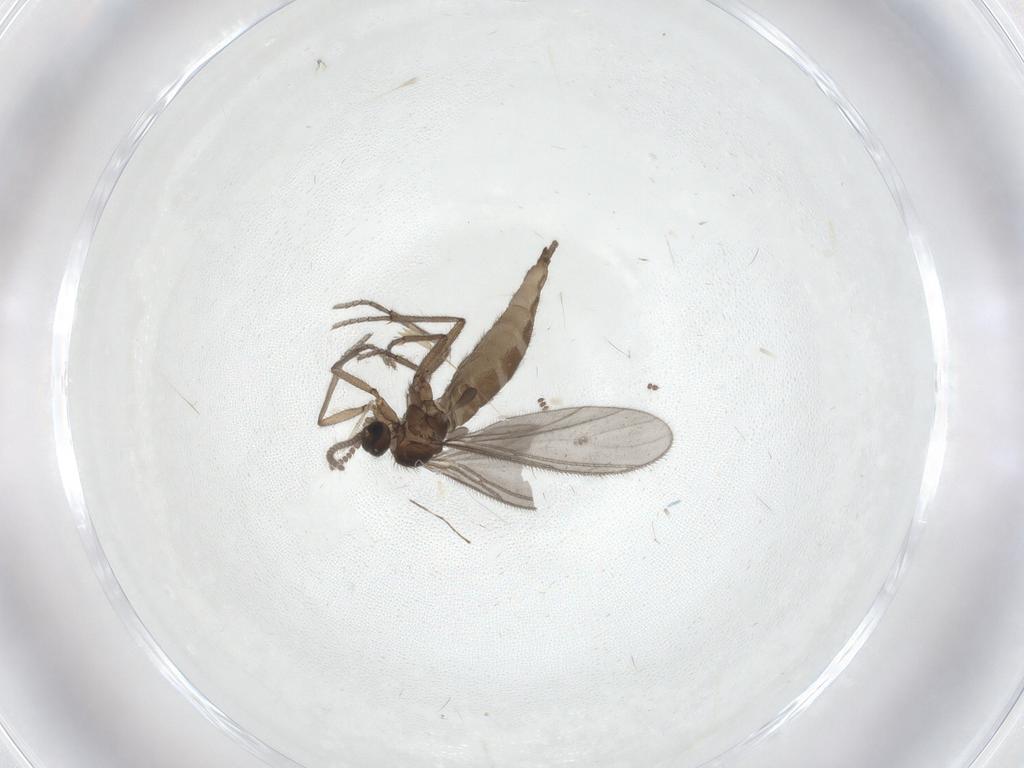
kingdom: Animalia
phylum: Arthropoda
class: Insecta
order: Diptera
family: Sciaridae
